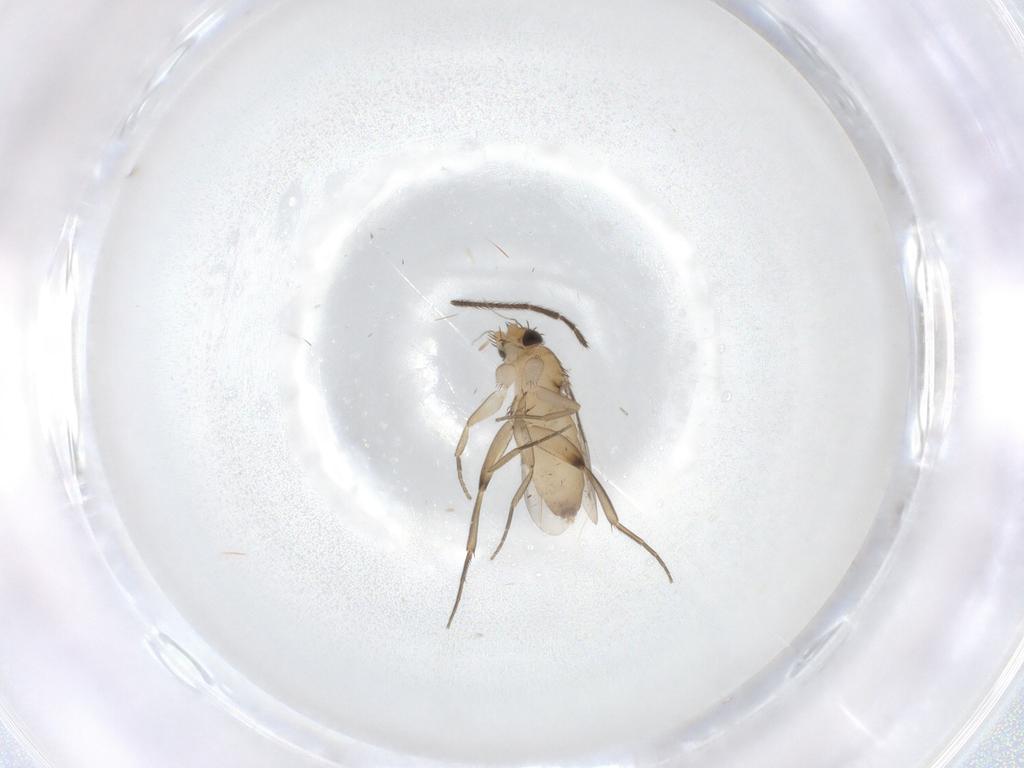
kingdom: Animalia
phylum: Arthropoda
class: Insecta
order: Diptera
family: Phoridae
